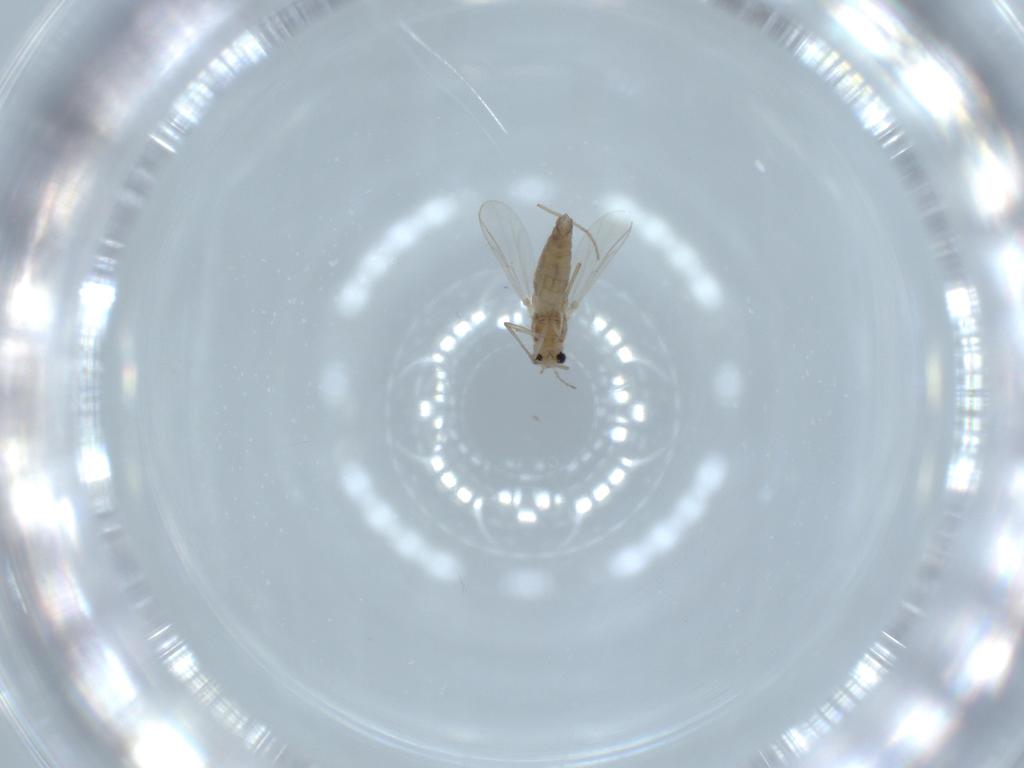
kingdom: Animalia
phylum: Arthropoda
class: Insecta
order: Diptera
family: Chironomidae
